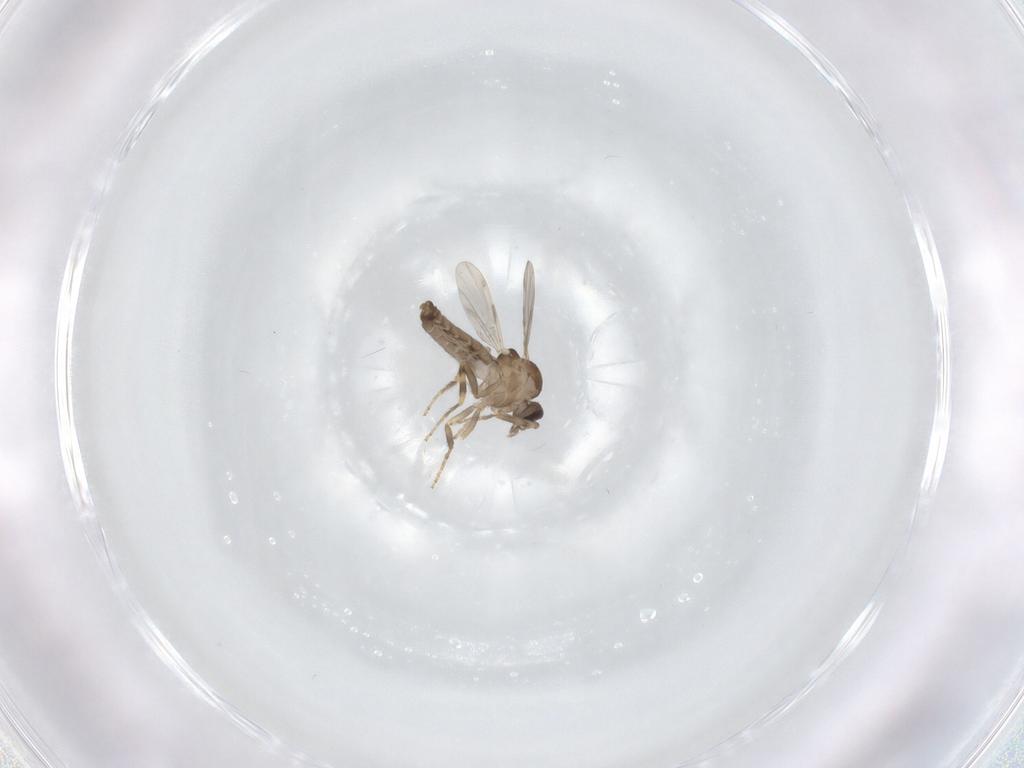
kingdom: Animalia
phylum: Arthropoda
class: Insecta
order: Diptera
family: Ceratopogonidae
